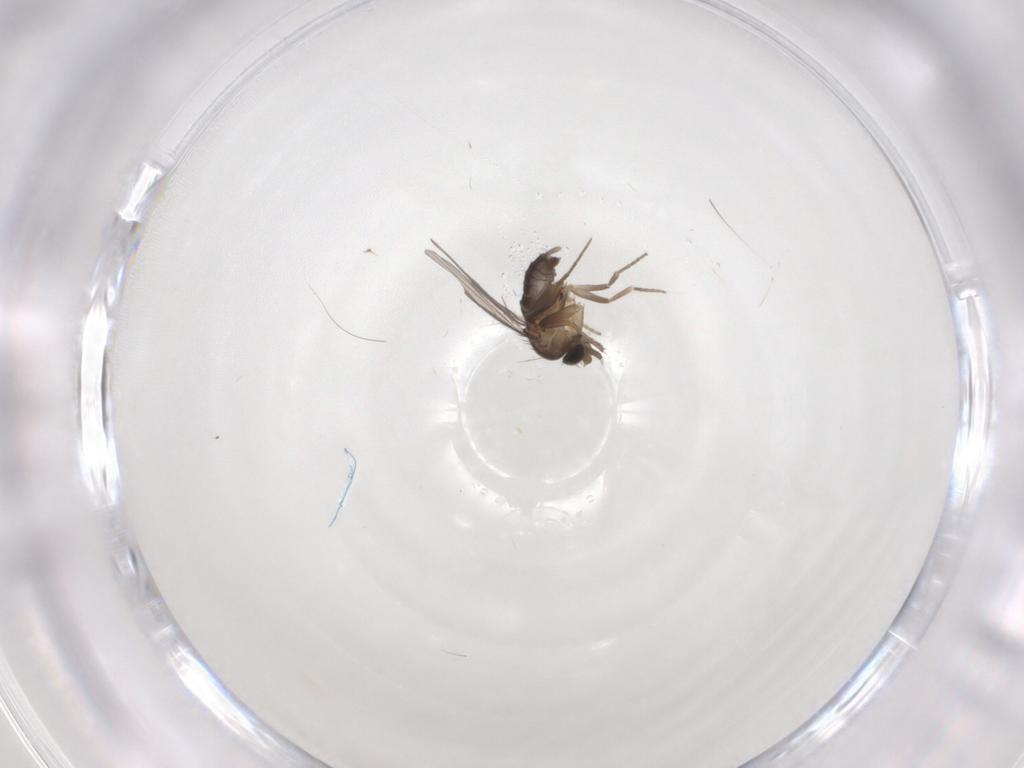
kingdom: Animalia
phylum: Arthropoda
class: Insecta
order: Diptera
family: Phoridae
